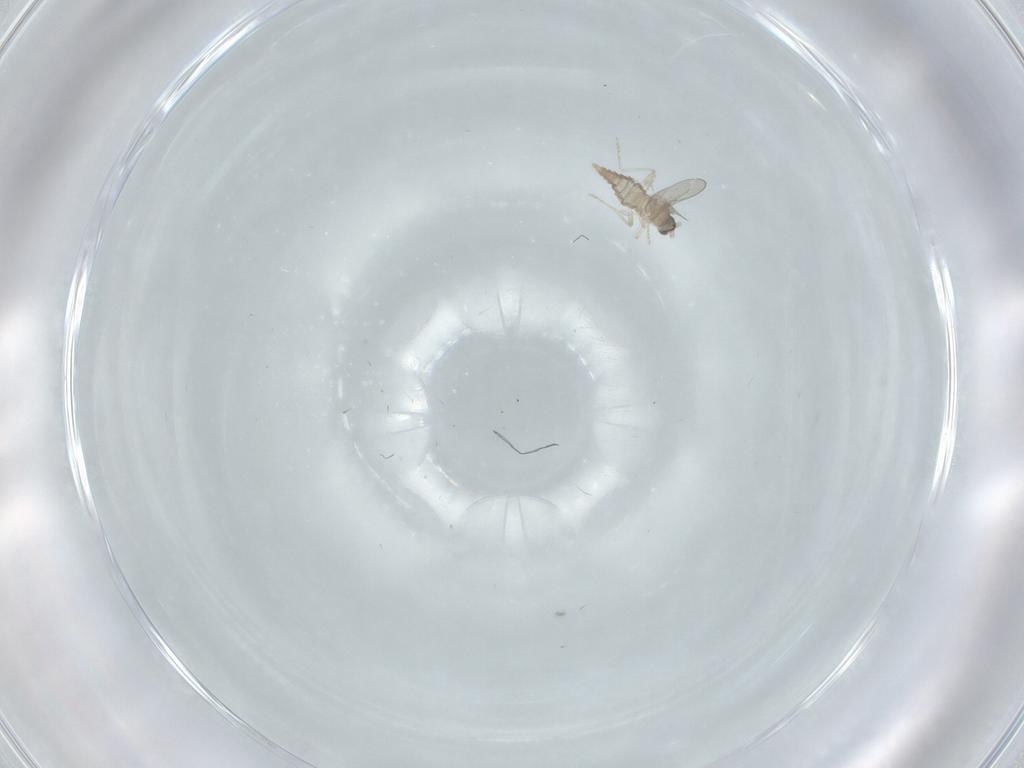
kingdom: Animalia
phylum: Arthropoda
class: Insecta
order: Diptera
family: Cecidomyiidae
